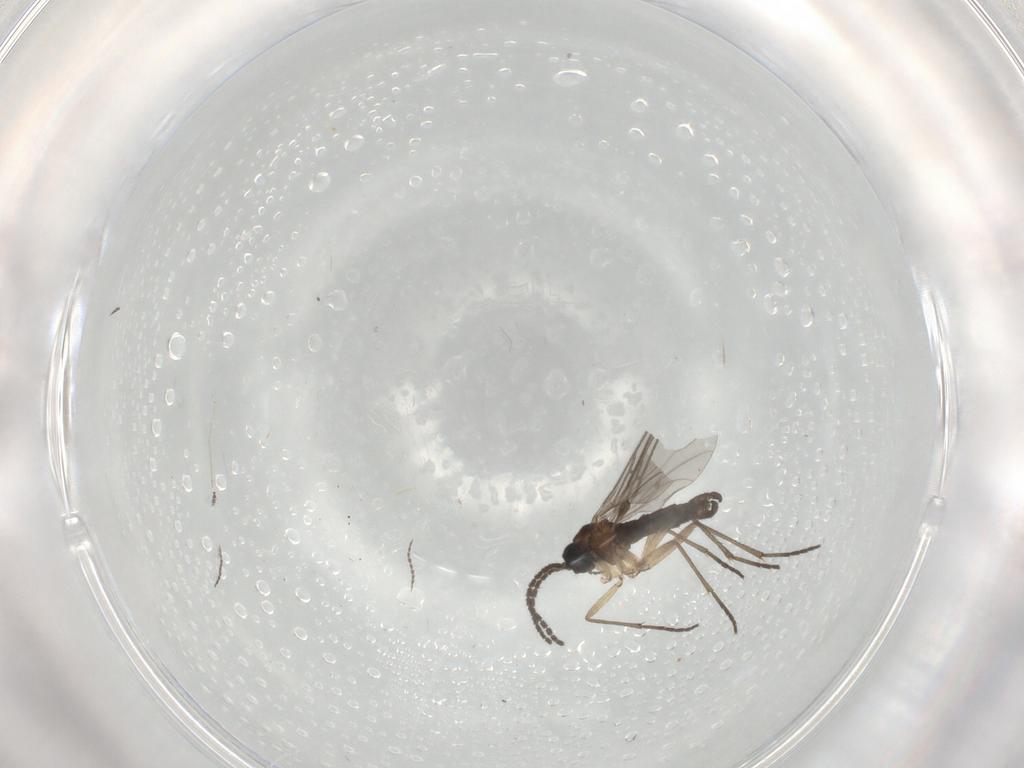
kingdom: Animalia
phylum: Arthropoda
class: Insecta
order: Diptera
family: Cecidomyiidae
